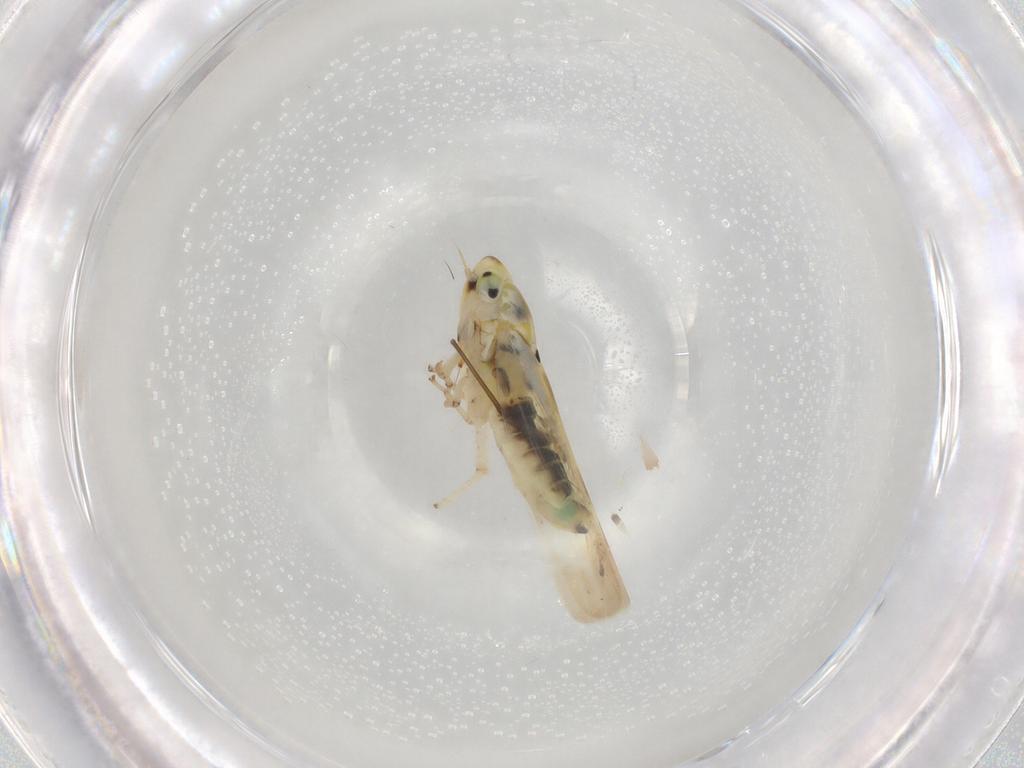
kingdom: Animalia
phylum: Arthropoda
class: Insecta
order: Hemiptera
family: Cicadellidae
